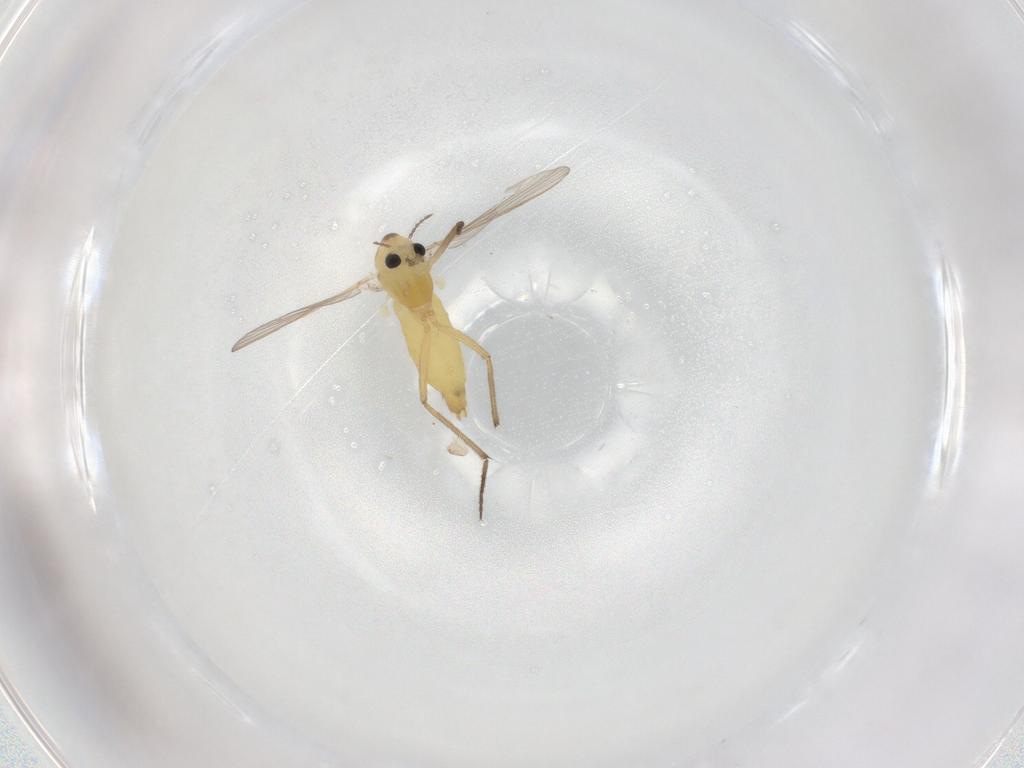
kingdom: Animalia
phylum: Arthropoda
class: Insecta
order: Diptera
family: Chironomidae
